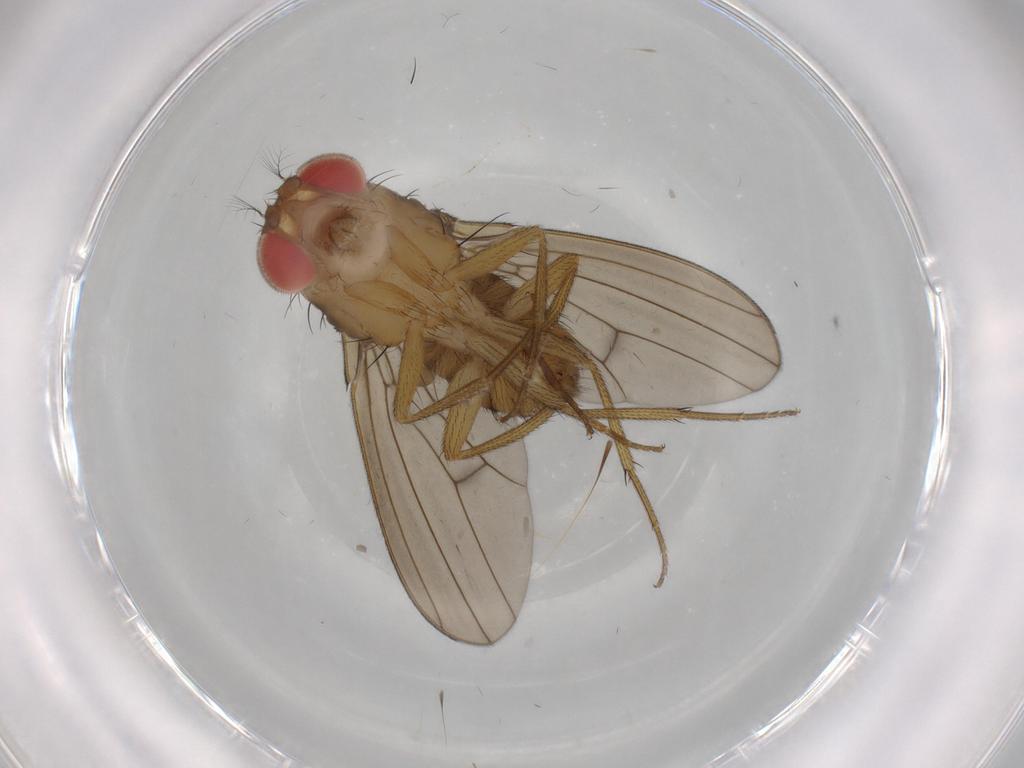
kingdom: Animalia
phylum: Arthropoda
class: Insecta
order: Diptera
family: Drosophilidae
